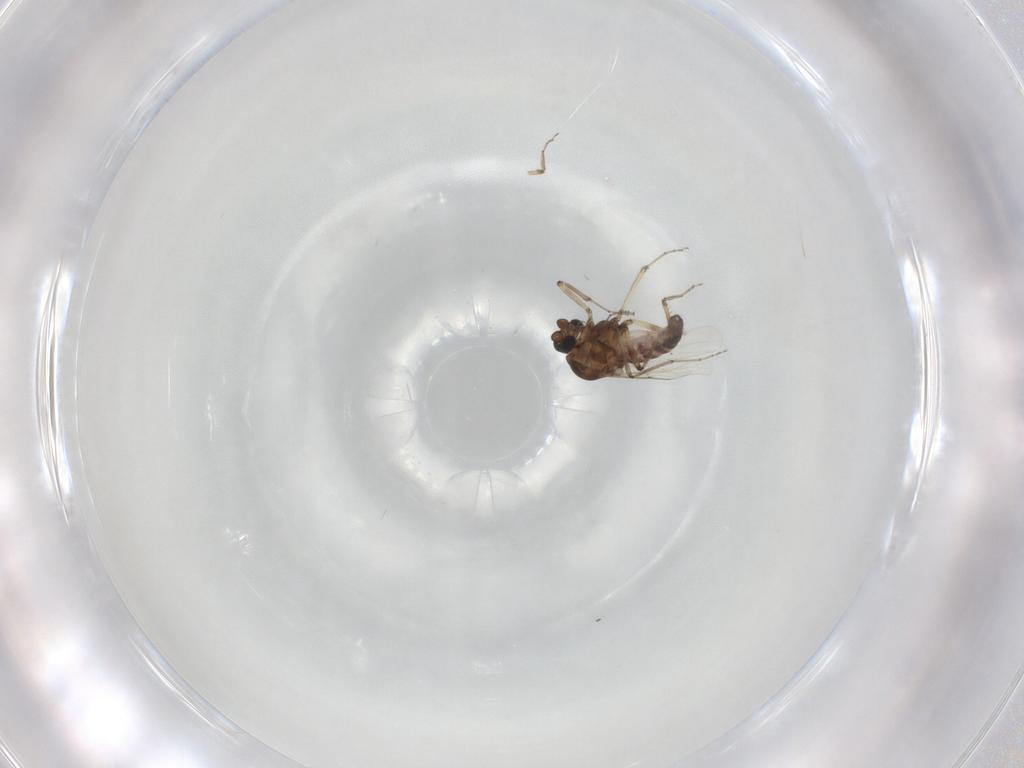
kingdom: Animalia
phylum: Arthropoda
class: Insecta
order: Diptera
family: Ceratopogonidae
